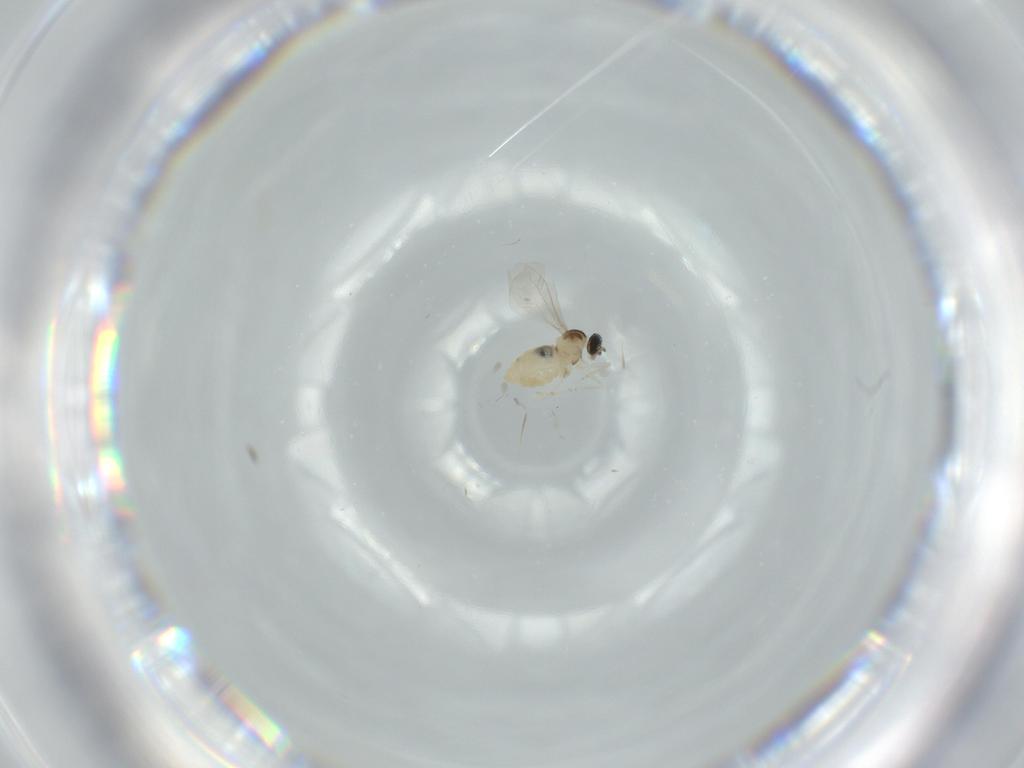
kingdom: Animalia
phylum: Arthropoda
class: Insecta
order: Diptera
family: Cecidomyiidae
